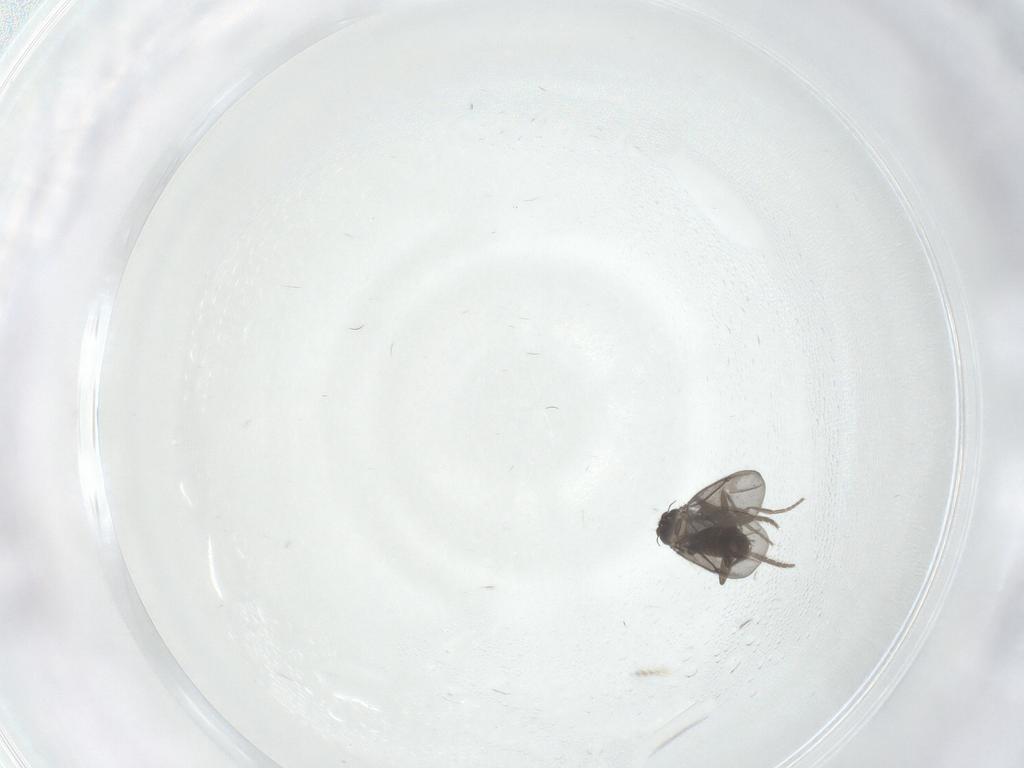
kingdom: Animalia
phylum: Arthropoda
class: Insecta
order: Diptera
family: Phoridae
